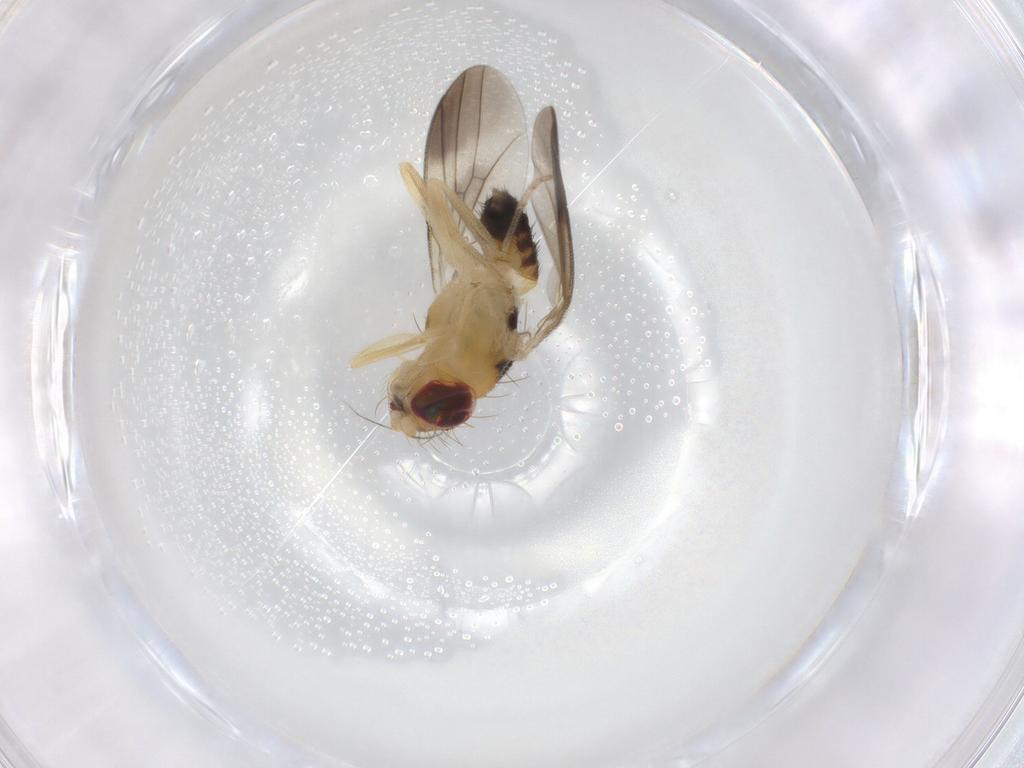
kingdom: Animalia
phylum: Arthropoda
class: Insecta
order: Diptera
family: Clusiidae
